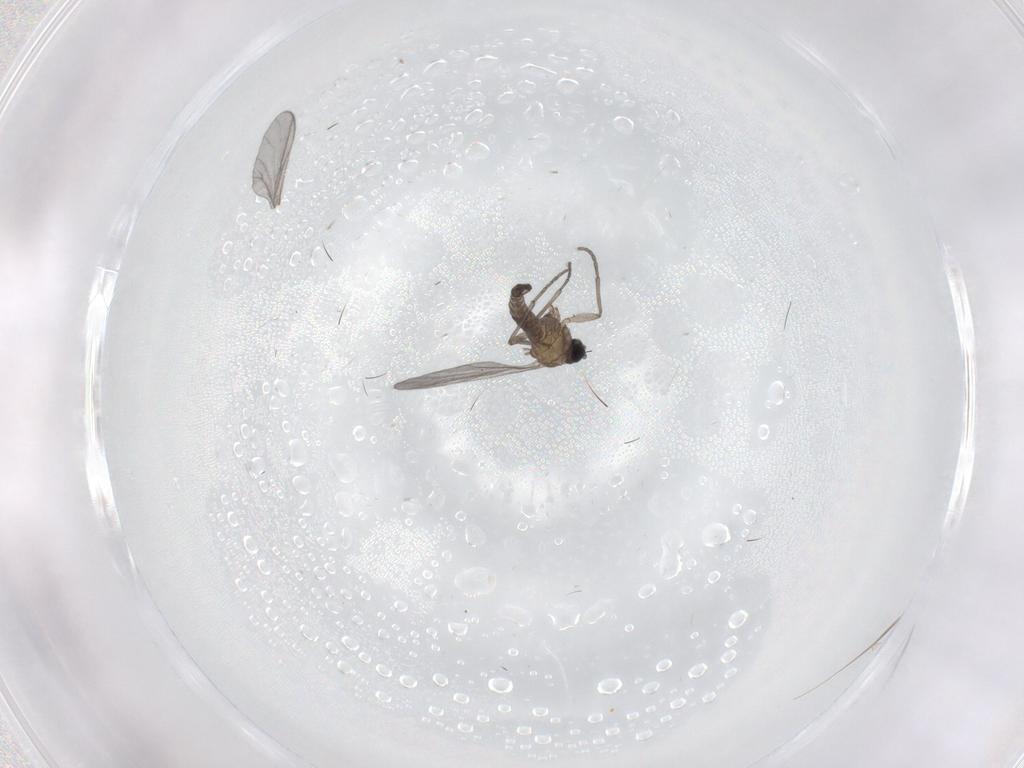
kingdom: Animalia
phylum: Arthropoda
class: Insecta
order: Diptera
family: Sciaridae
